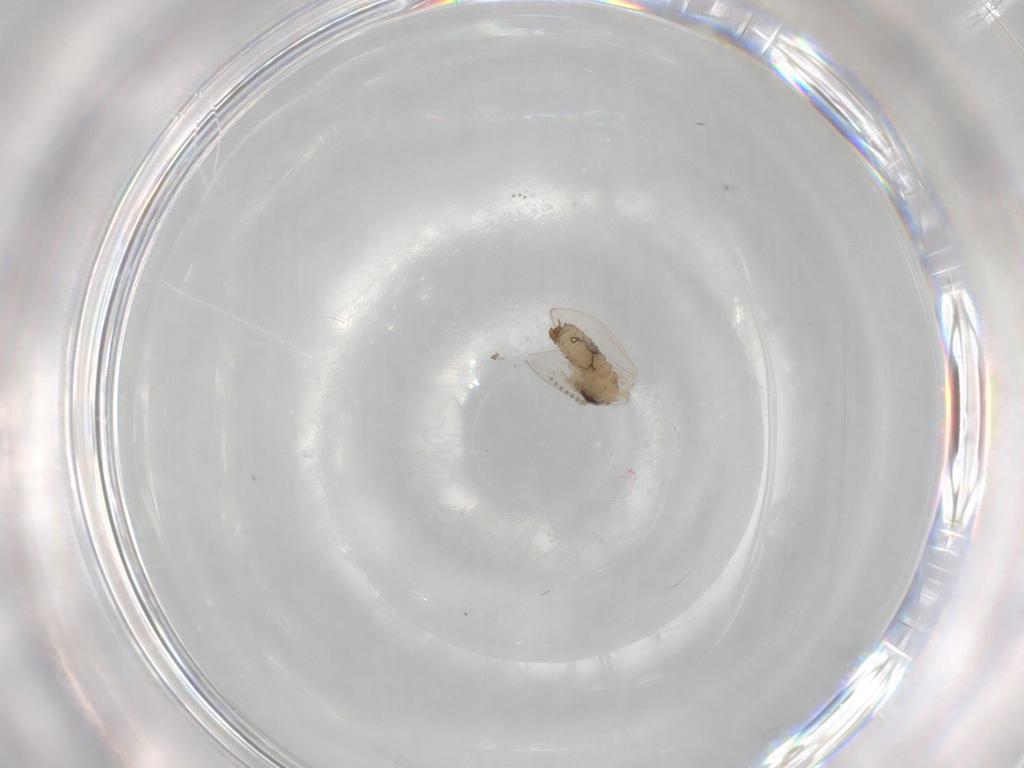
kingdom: Animalia
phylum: Arthropoda
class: Insecta
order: Diptera
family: Psychodidae
